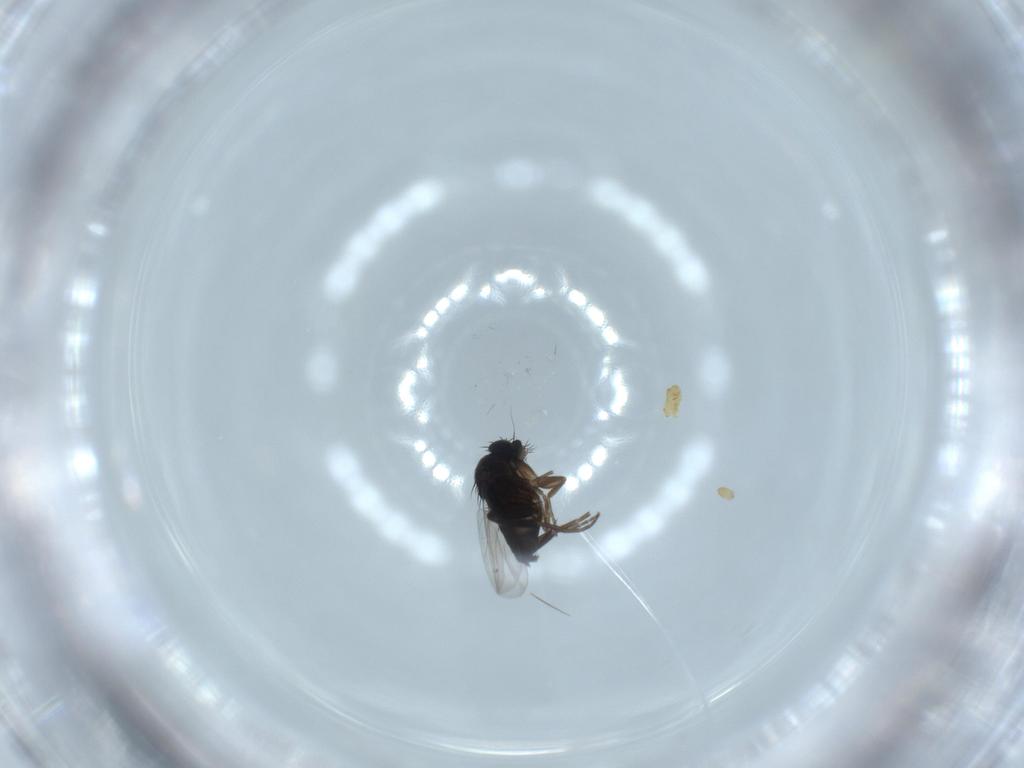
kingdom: Animalia
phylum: Arthropoda
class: Insecta
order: Diptera
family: Phoridae
